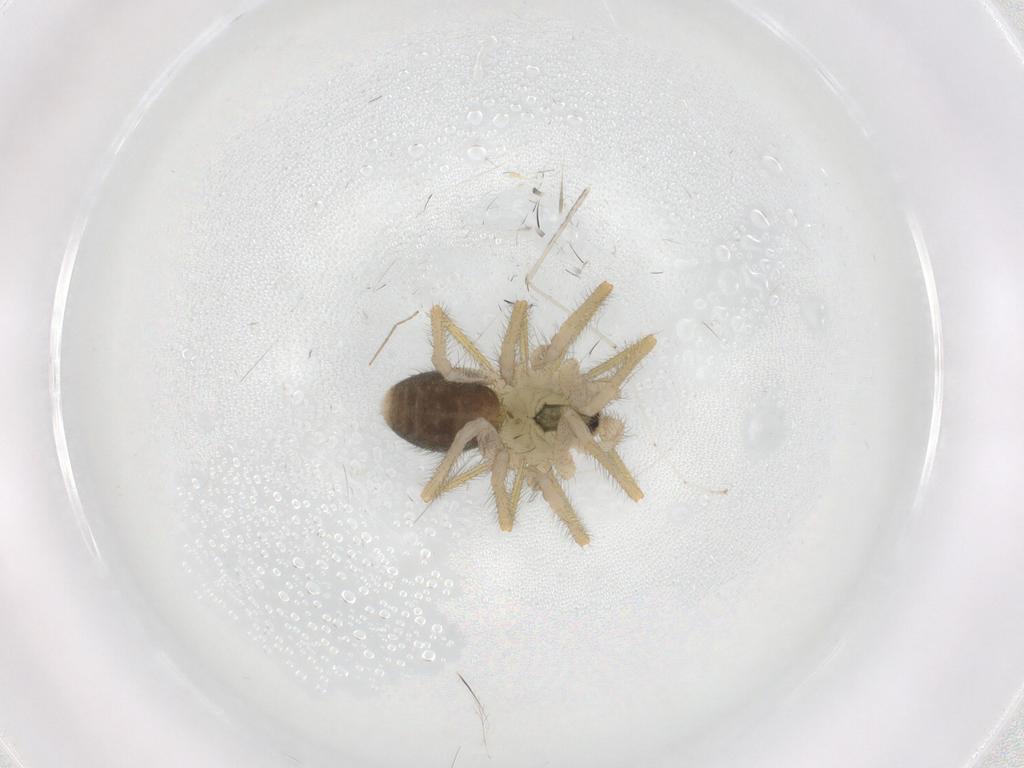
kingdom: Animalia
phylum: Arthropoda
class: Arachnida
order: Araneae
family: Linyphiidae
